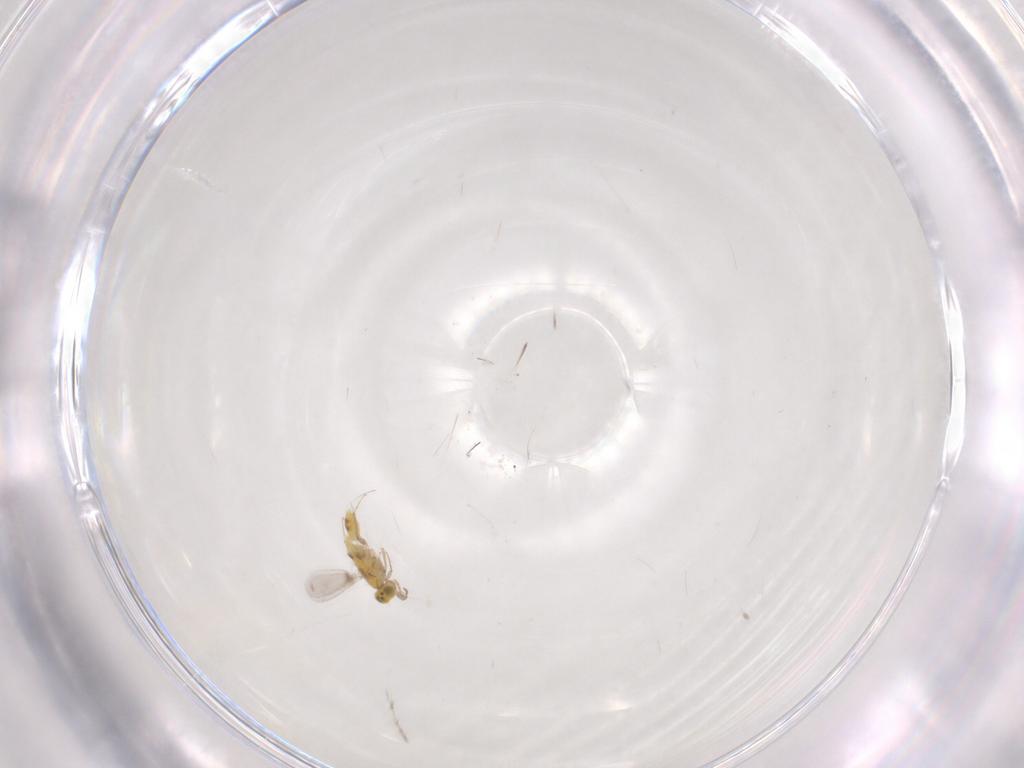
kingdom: Animalia
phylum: Arthropoda
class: Insecta
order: Hymenoptera
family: Aphelinidae
